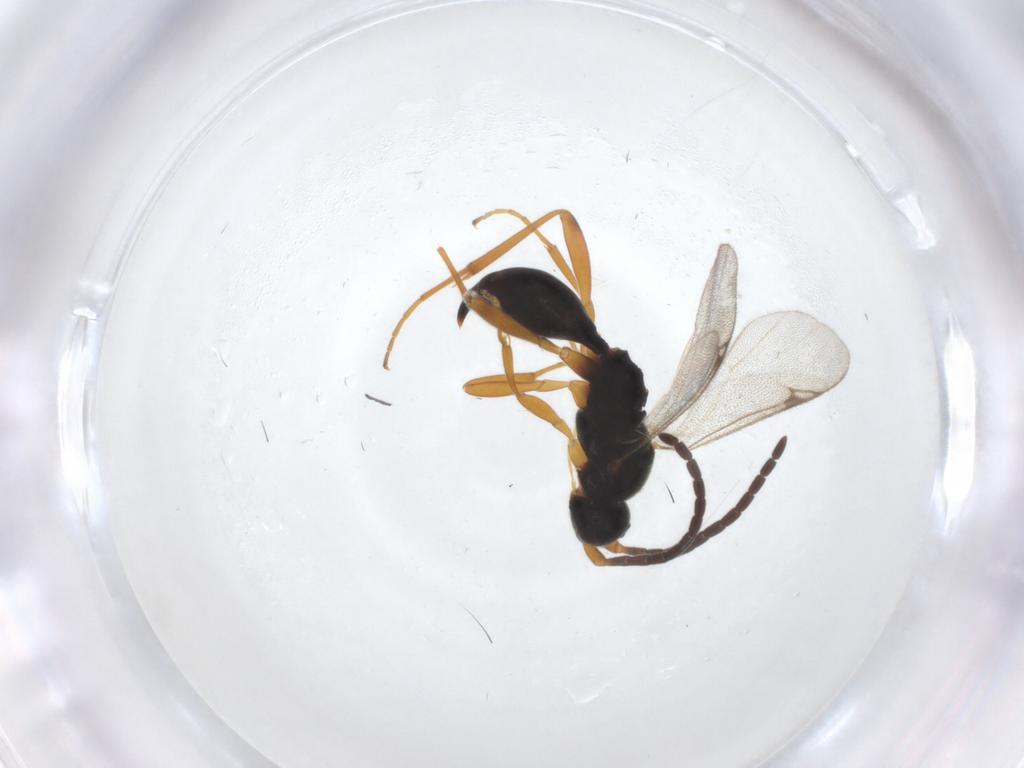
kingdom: Animalia
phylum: Arthropoda
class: Insecta
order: Hymenoptera
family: Proctotrupidae
